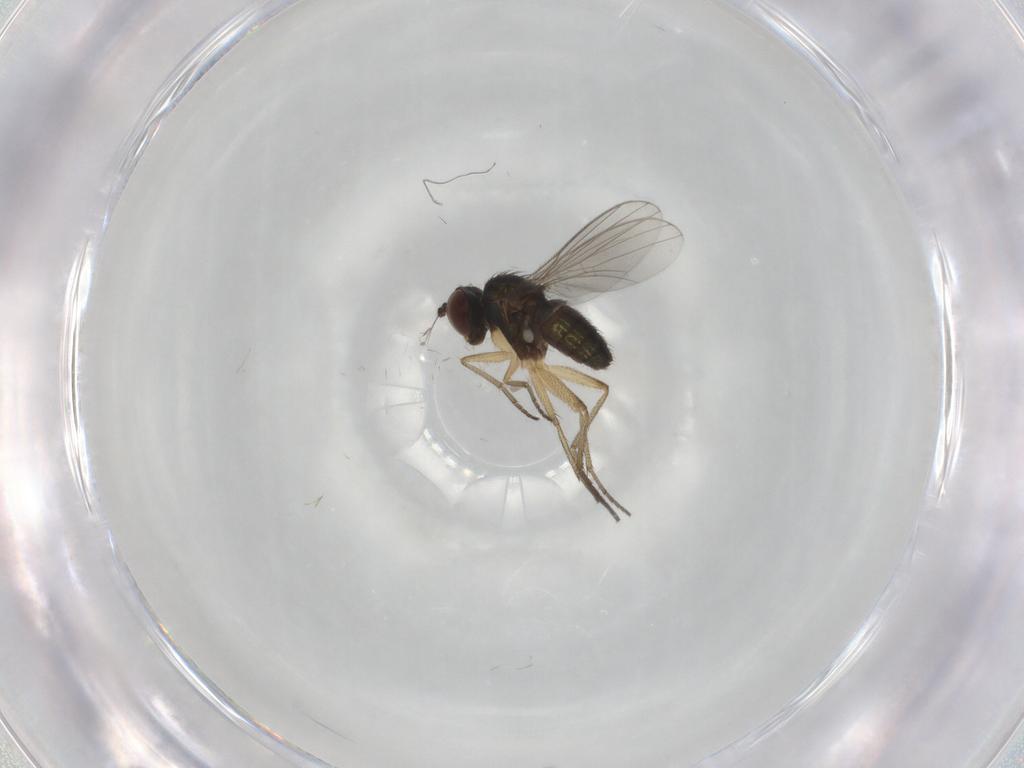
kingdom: Animalia
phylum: Arthropoda
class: Insecta
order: Diptera
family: Dolichopodidae
